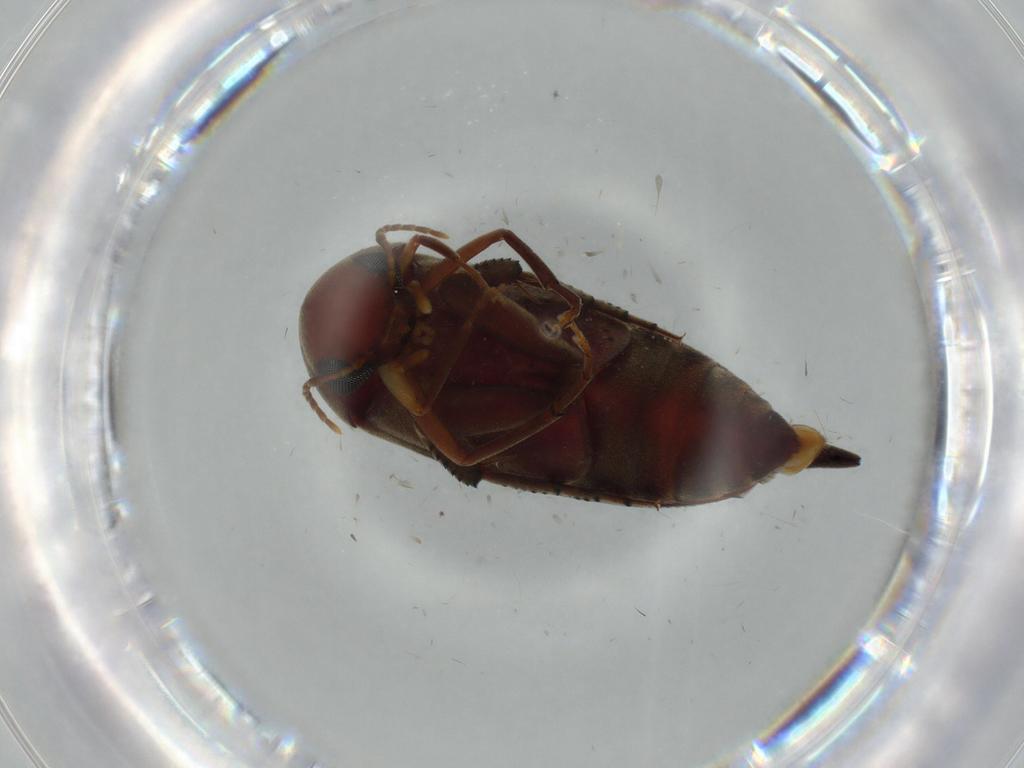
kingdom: Animalia
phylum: Arthropoda
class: Insecta
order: Coleoptera
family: Mordellidae
